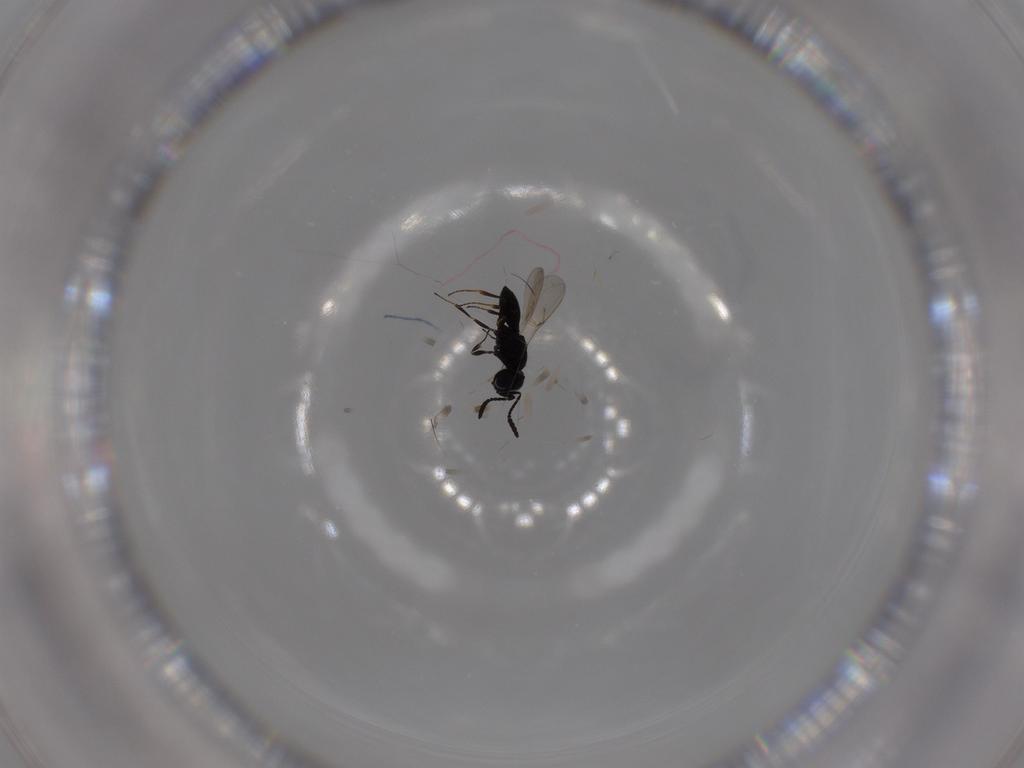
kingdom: Animalia
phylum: Arthropoda
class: Insecta
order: Hymenoptera
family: Scelionidae
